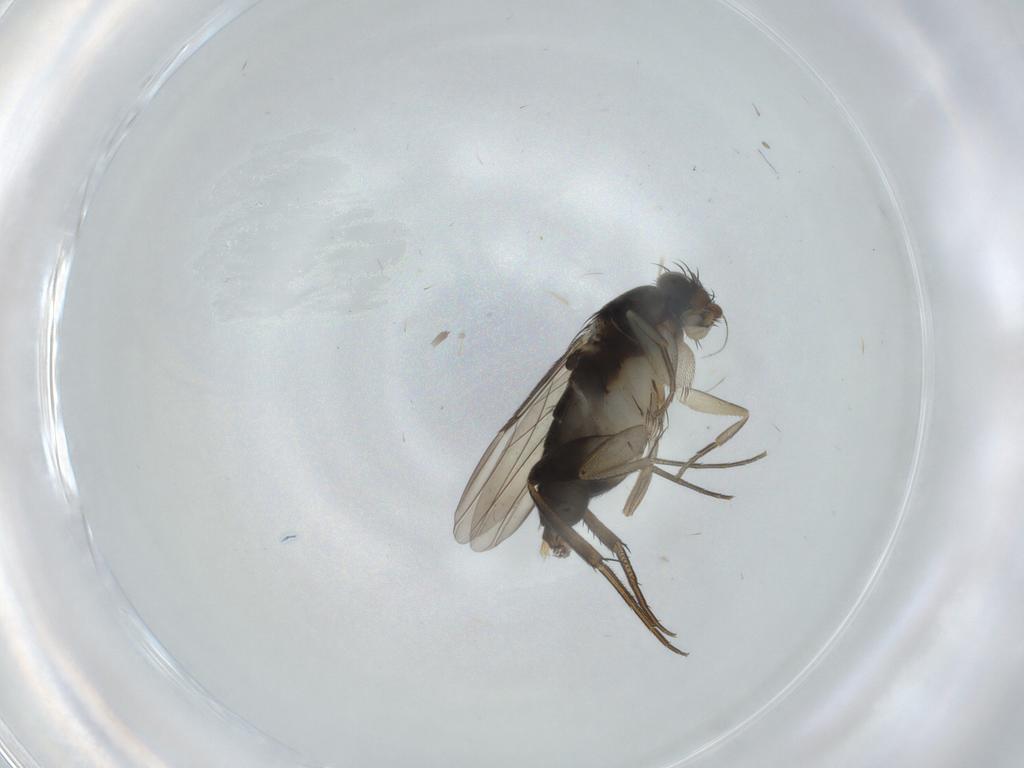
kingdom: Animalia
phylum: Arthropoda
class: Insecta
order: Diptera
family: Phoridae
